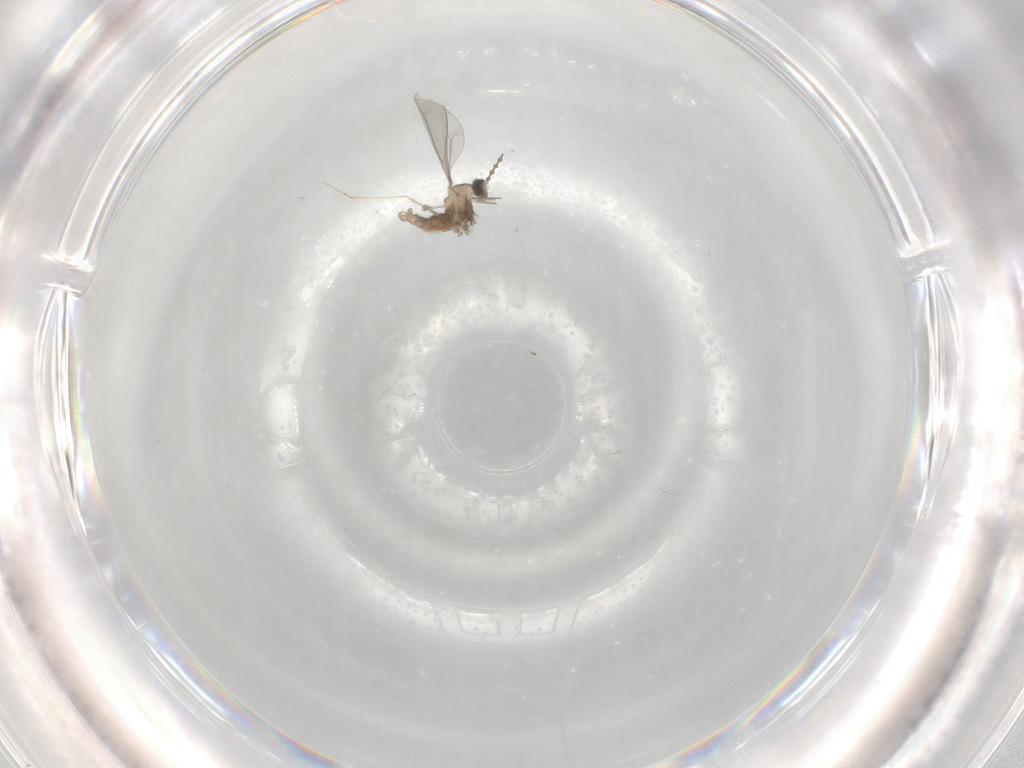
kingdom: Animalia
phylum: Arthropoda
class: Insecta
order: Diptera
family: Cecidomyiidae
